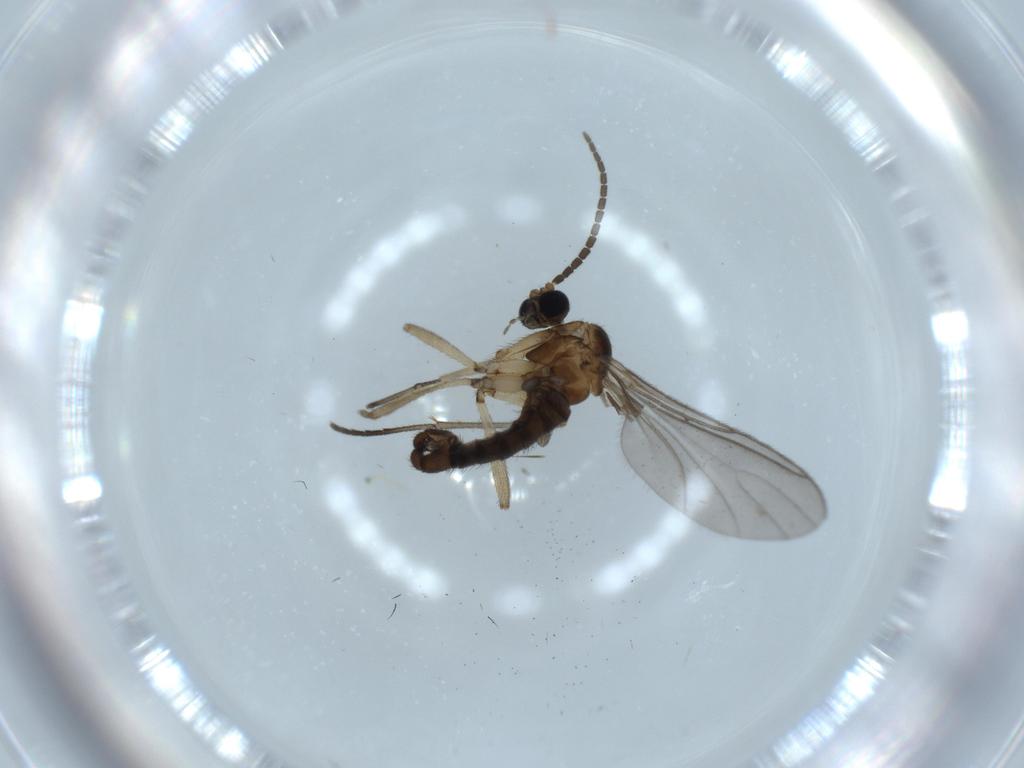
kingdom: Animalia
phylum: Arthropoda
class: Insecta
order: Diptera
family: Sciaridae
